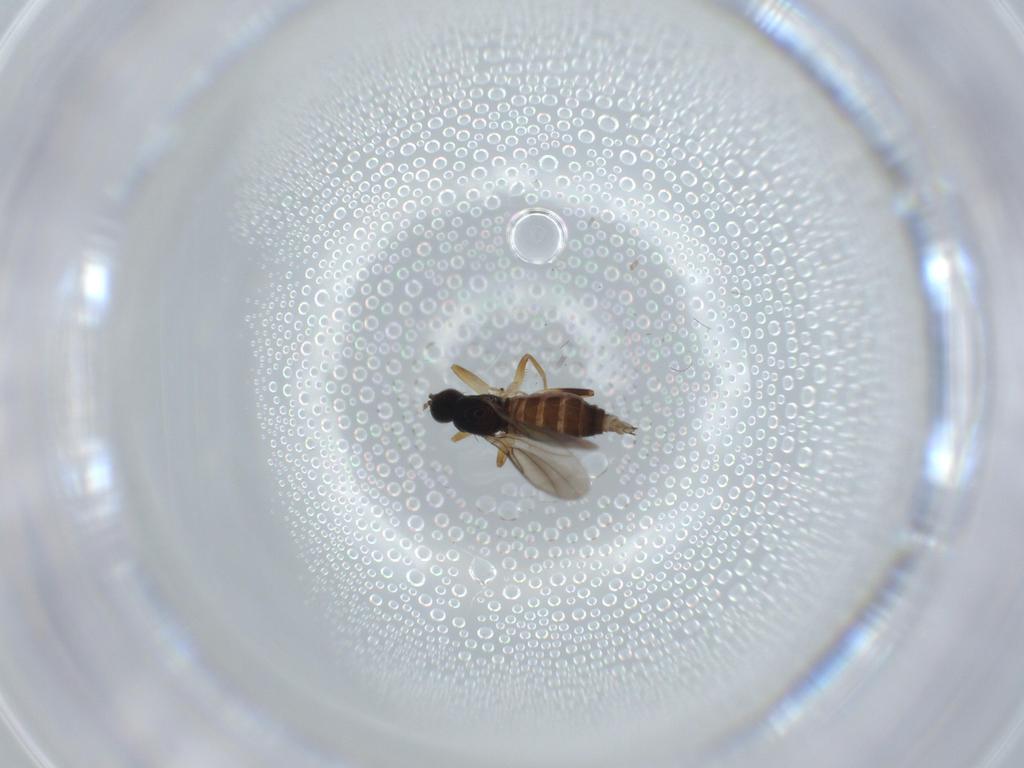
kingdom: Animalia
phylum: Arthropoda
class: Insecta
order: Diptera
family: Hybotidae
